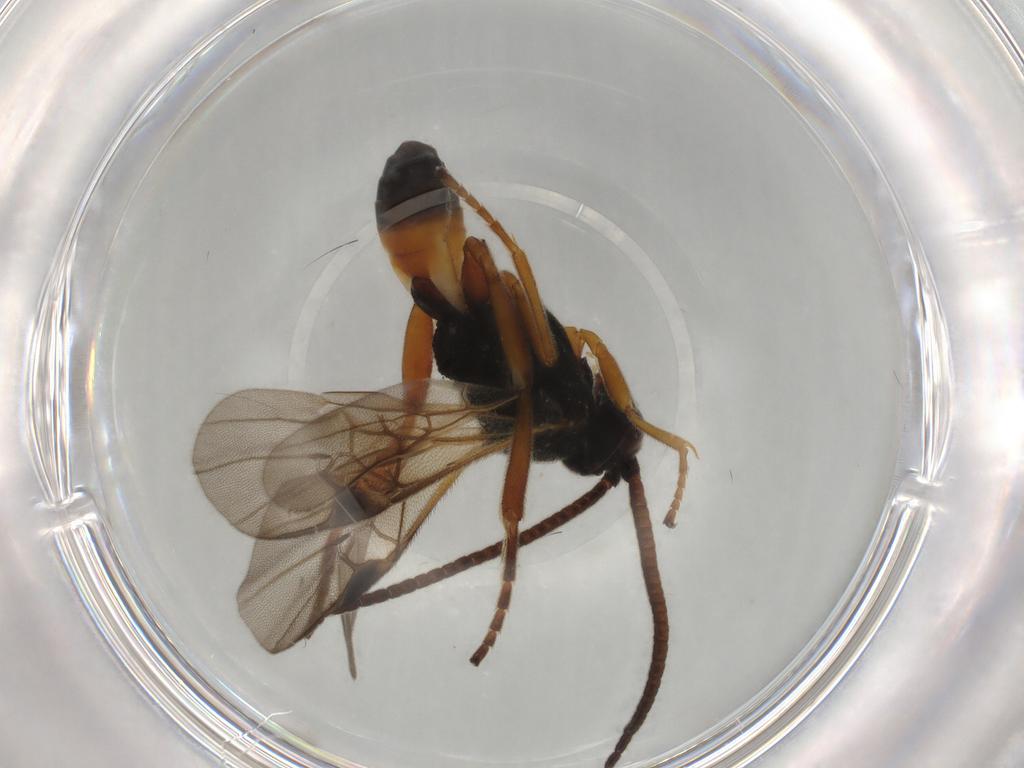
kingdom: Animalia
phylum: Arthropoda
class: Insecta
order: Hymenoptera
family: Braconidae
